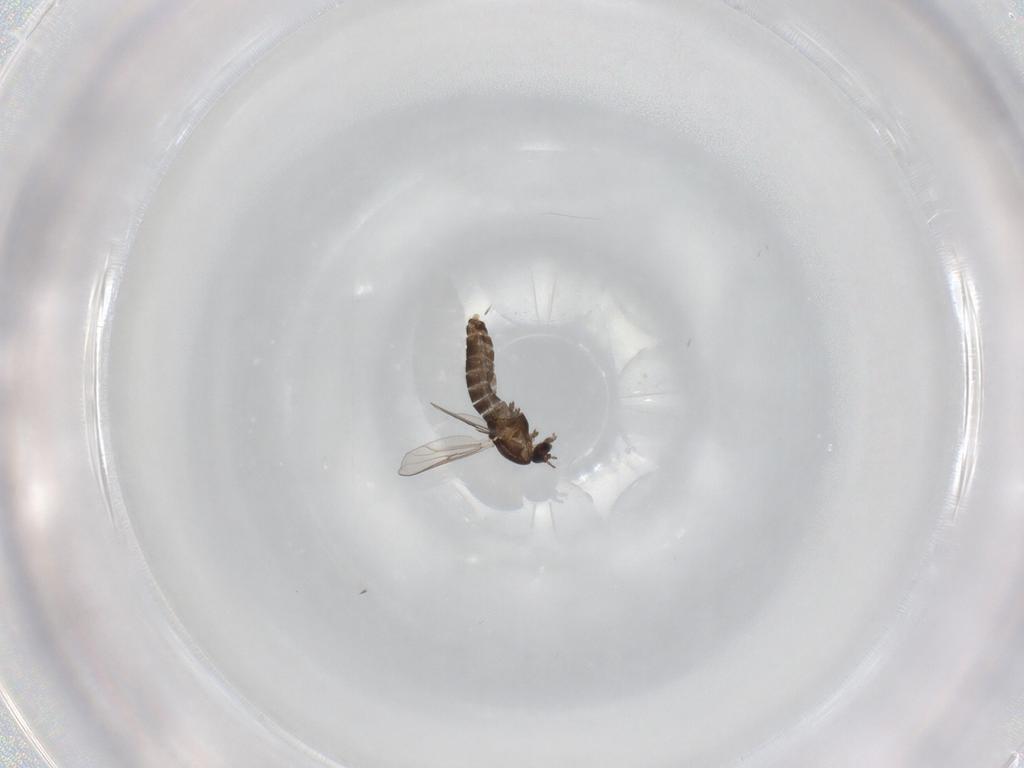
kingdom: Animalia
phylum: Arthropoda
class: Insecta
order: Diptera
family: Chironomidae
